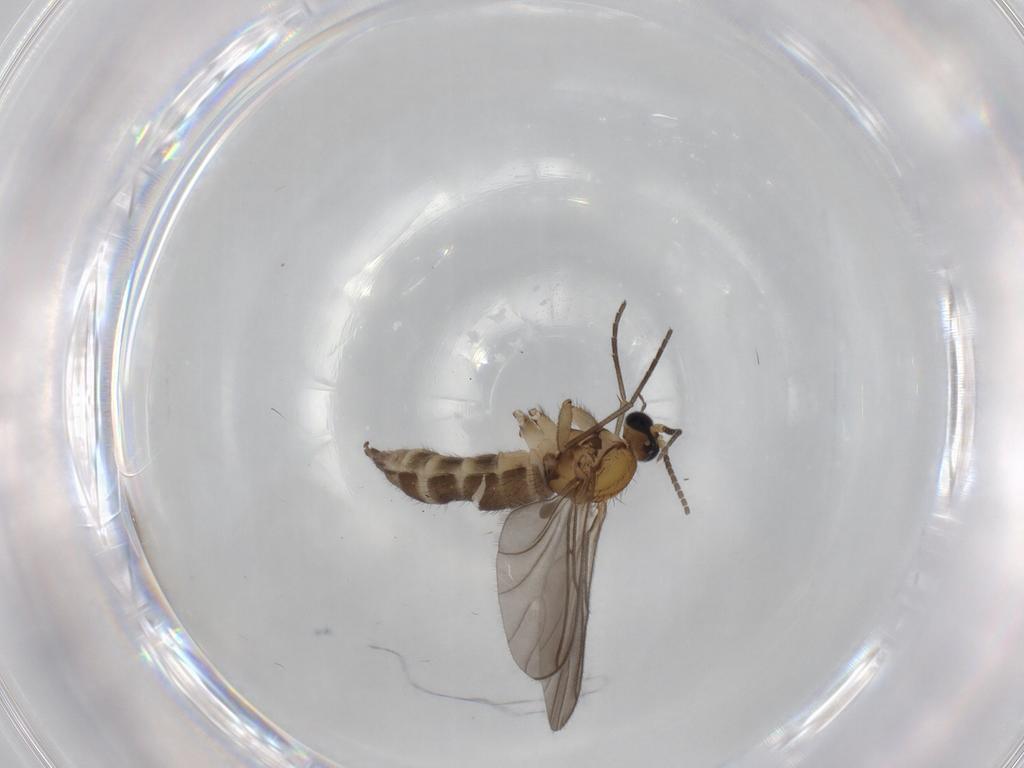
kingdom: Animalia
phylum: Arthropoda
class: Insecta
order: Diptera
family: Sciaridae
